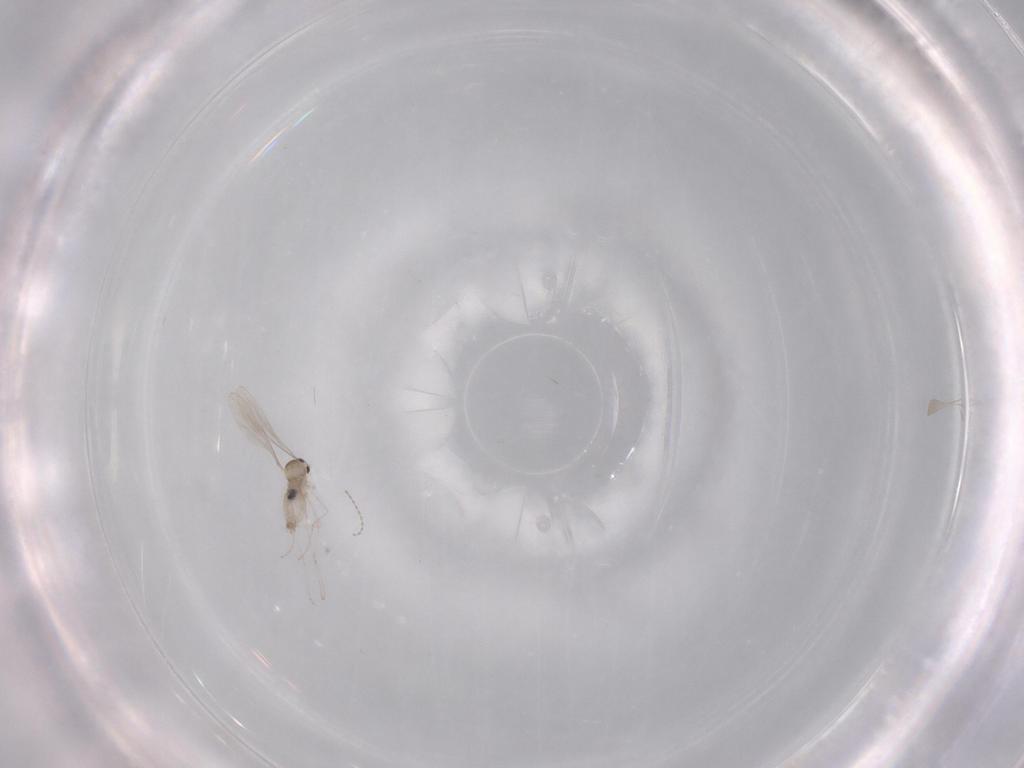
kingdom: Animalia
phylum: Arthropoda
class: Insecta
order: Diptera
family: Cecidomyiidae
